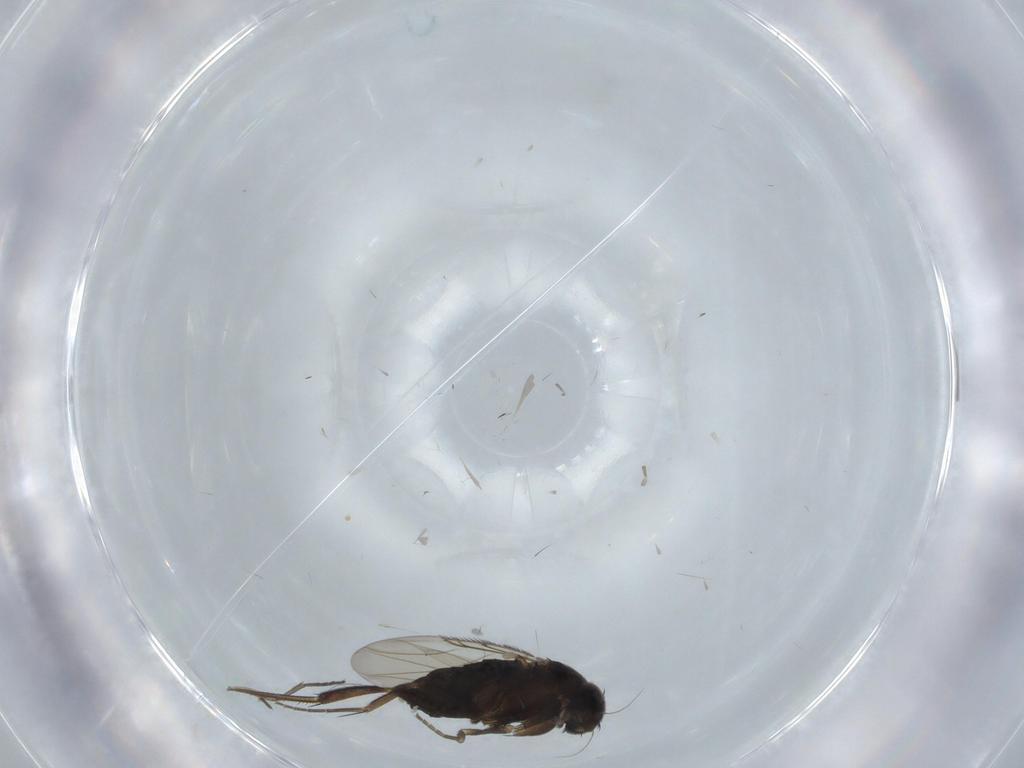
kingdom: Animalia
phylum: Arthropoda
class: Insecta
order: Diptera
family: Phoridae
